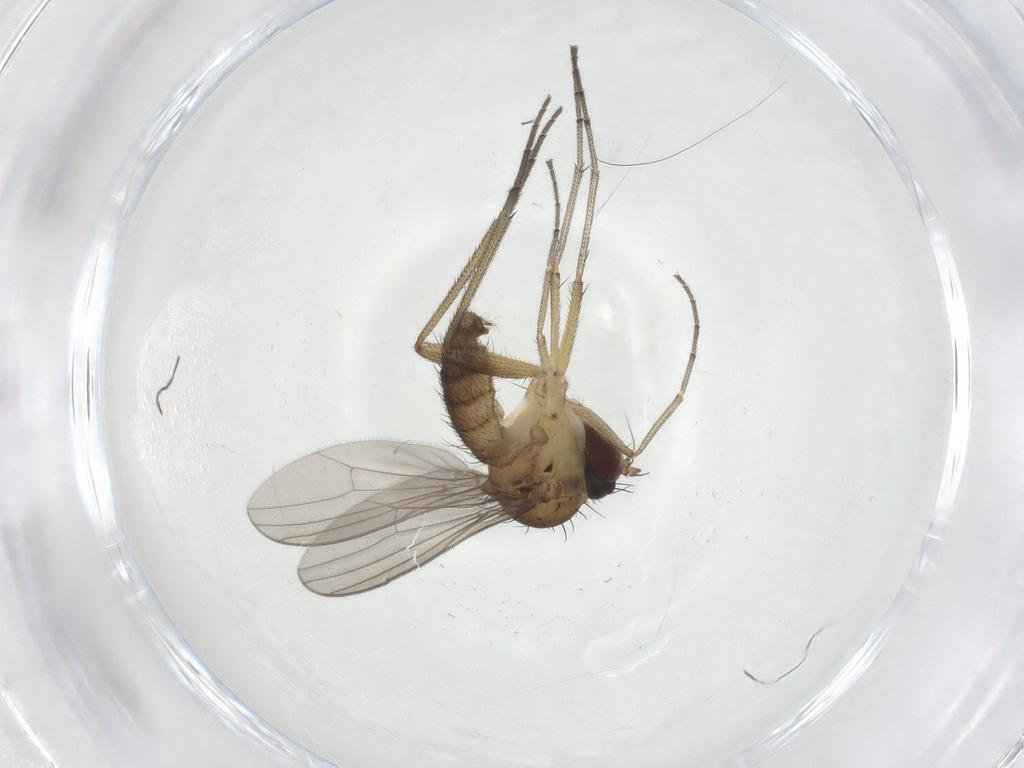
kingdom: Animalia
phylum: Arthropoda
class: Insecta
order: Diptera
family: Dolichopodidae
